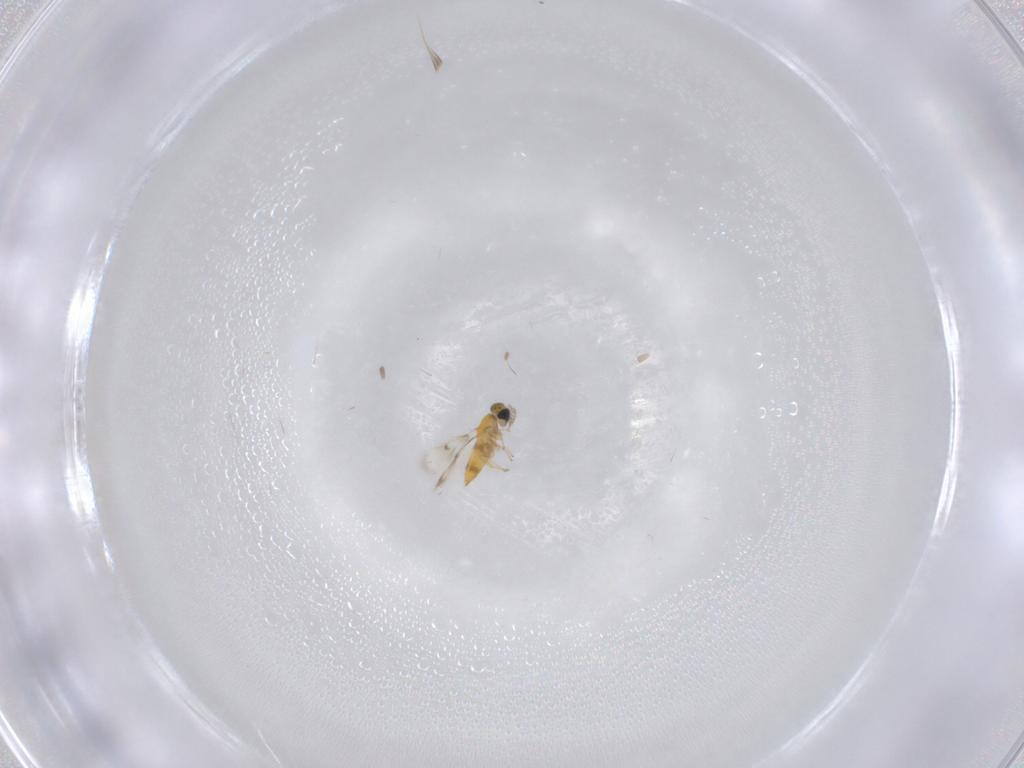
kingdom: Animalia
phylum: Arthropoda
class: Insecta
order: Hymenoptera
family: Trichogrammatidae
